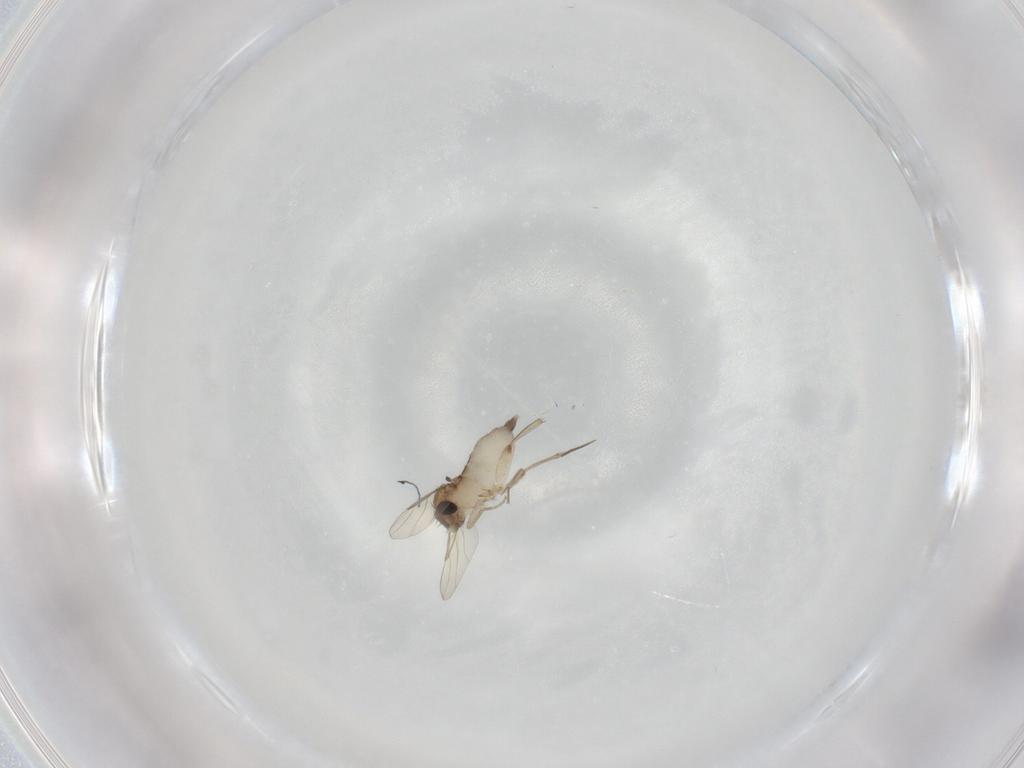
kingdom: Animalia
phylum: Arthropoda
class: Insecta
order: Diptera
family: Phoridae
